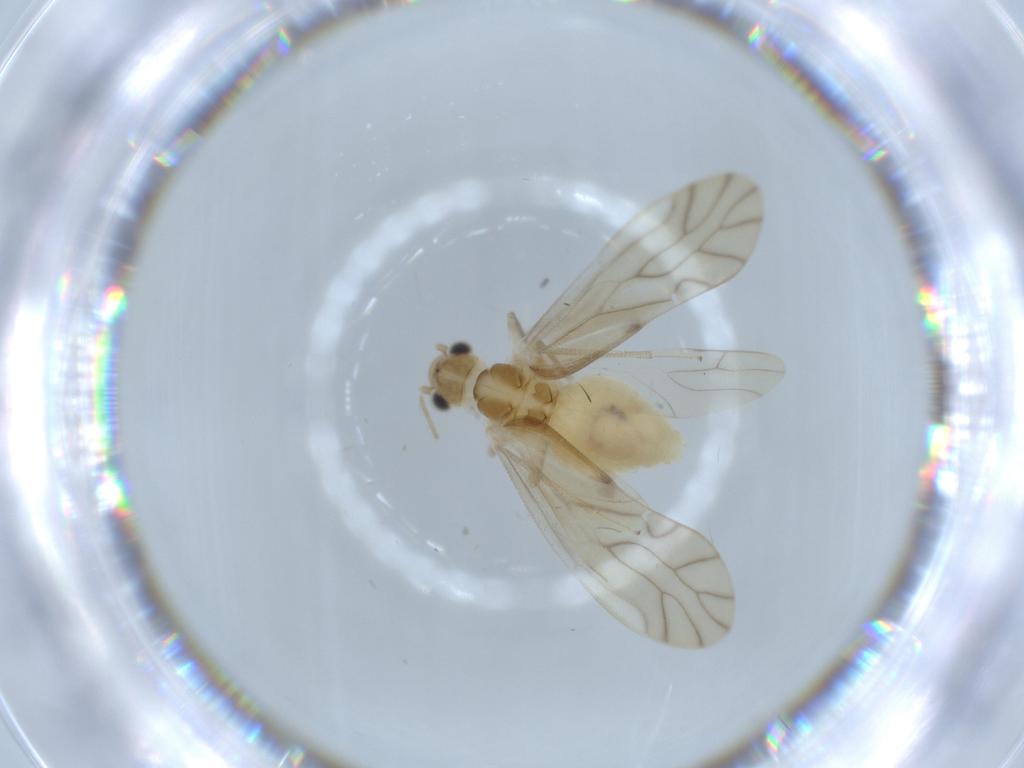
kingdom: Animalia
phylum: Arthropoda
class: Insecta
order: Psocodea
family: Caeciliusidae
